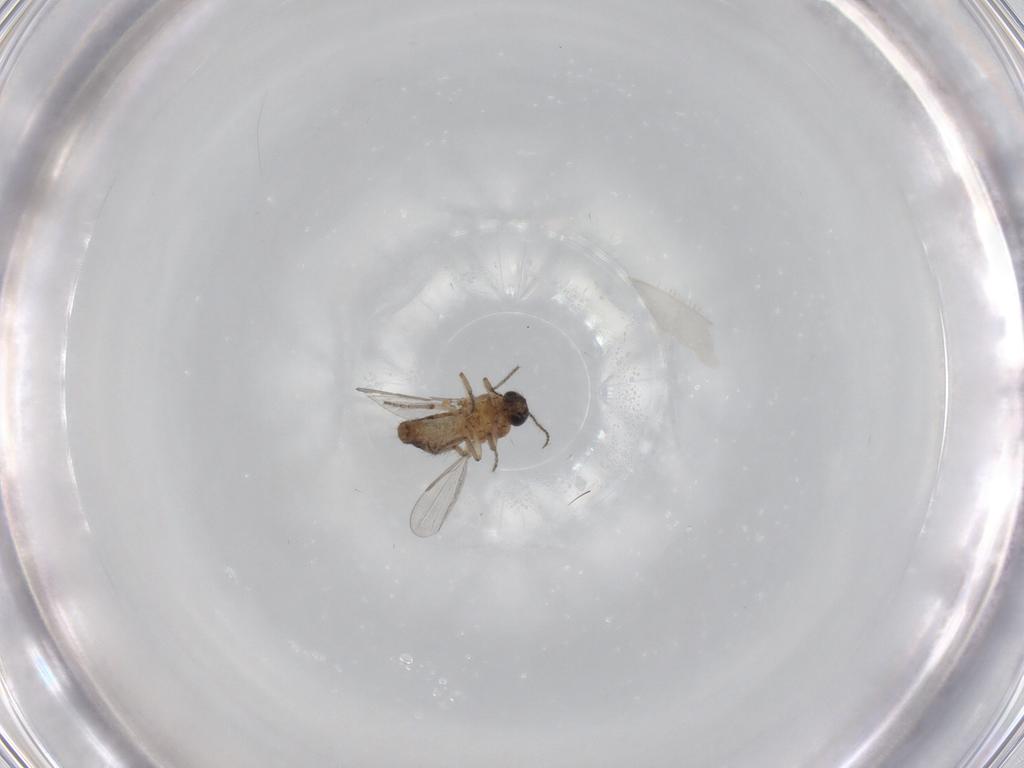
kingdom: Animalia
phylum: Arthropoda
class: Insecta
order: Diptera
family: Ceratopogonidae
